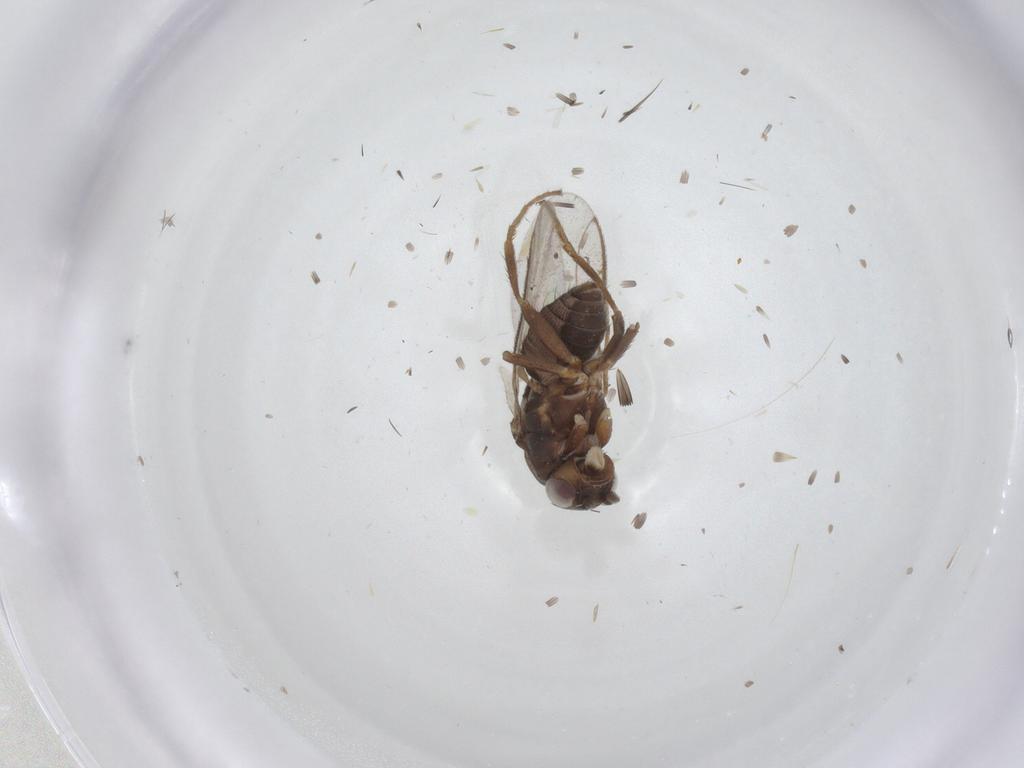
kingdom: Animalia
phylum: Arthropoda
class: Insecta
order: Diptera
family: Sphaeroceridae
